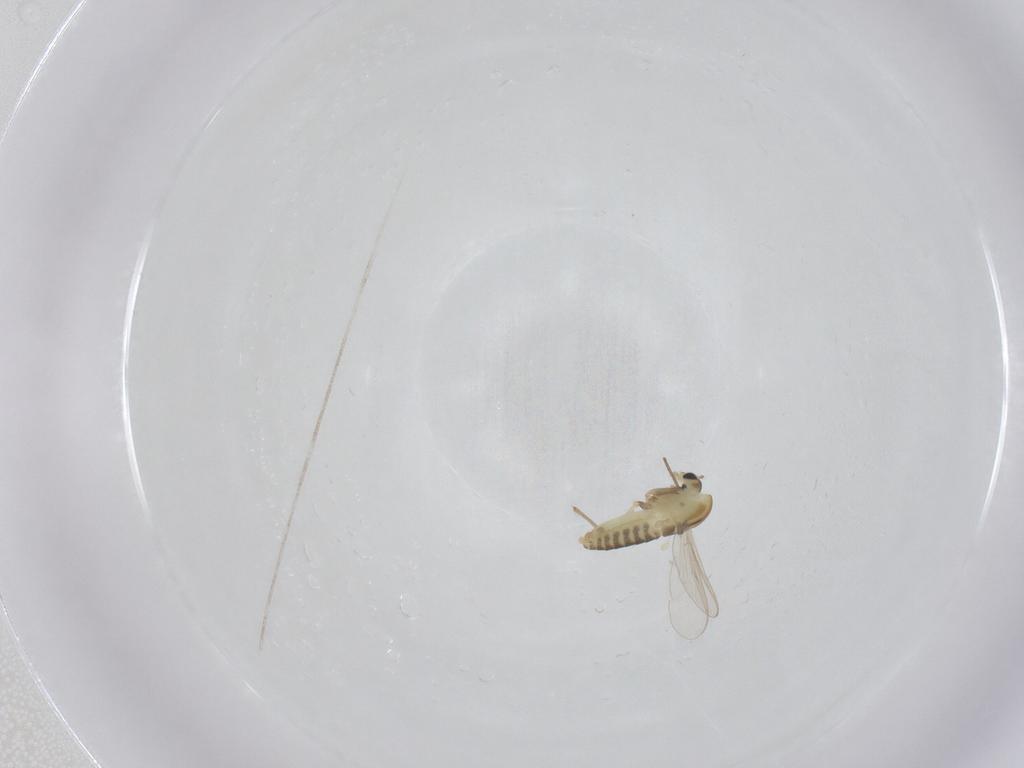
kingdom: Animalia
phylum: Arthropoda
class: Insecta
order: Diptera
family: Chironomidae
